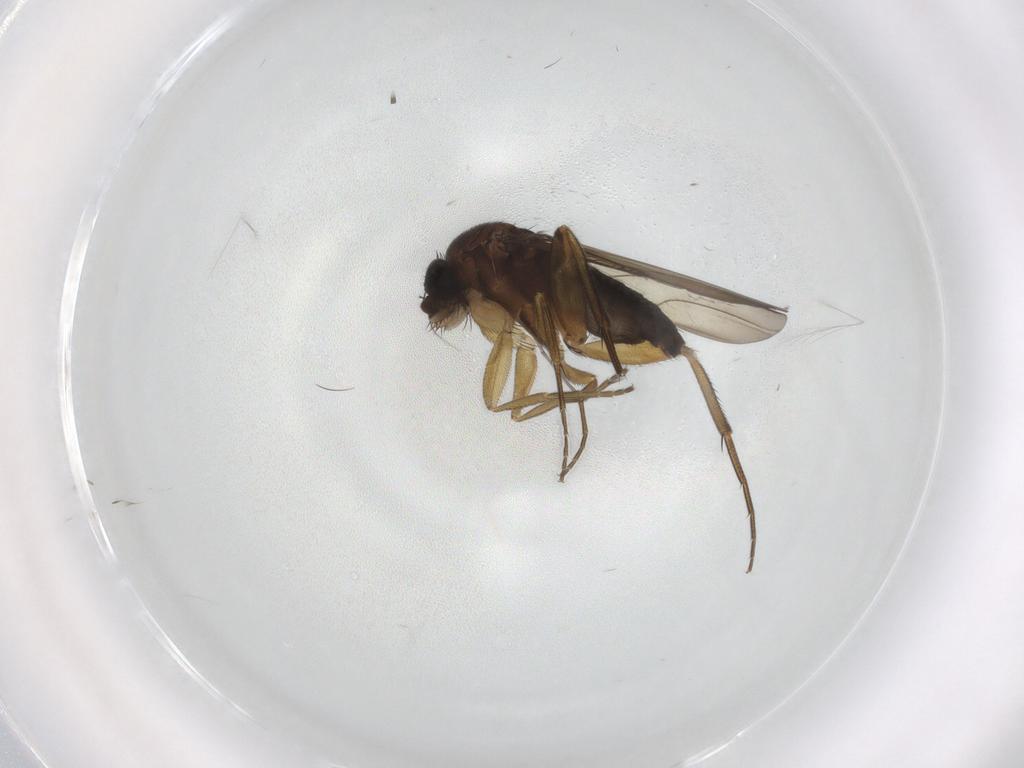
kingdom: Animalia
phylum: Arthropoda
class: Insecta
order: Diptera
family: Phoridae
